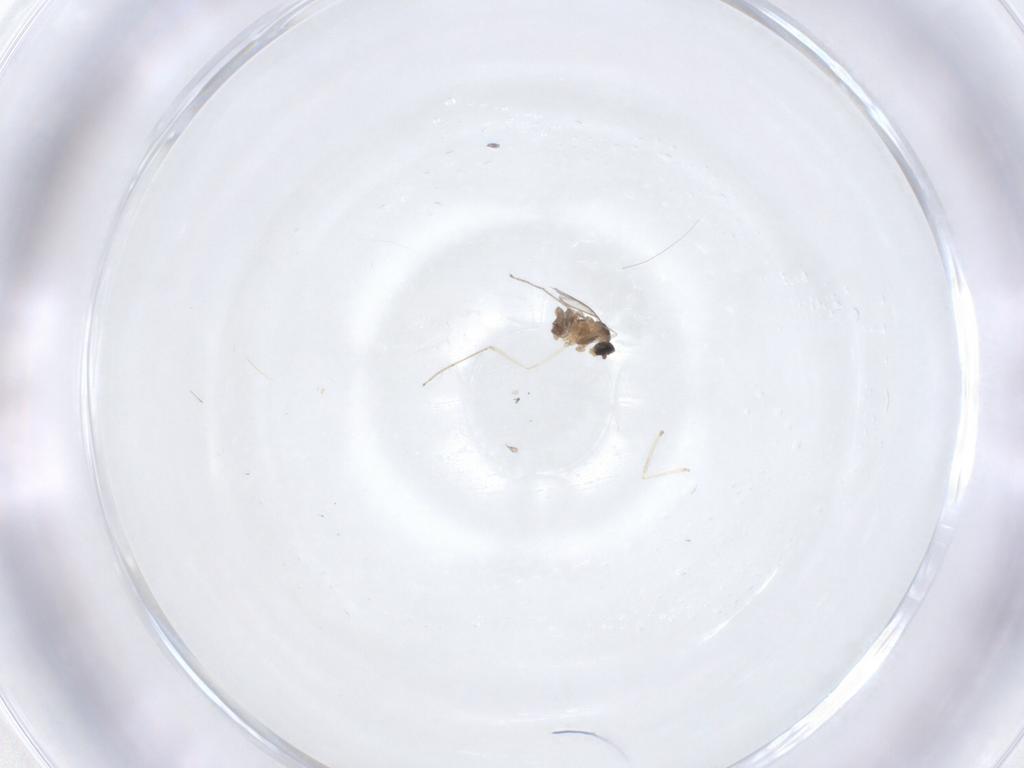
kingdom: Animalia
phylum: Arthropoda
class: Insecta
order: Diptera
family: Cecidomyiidae
